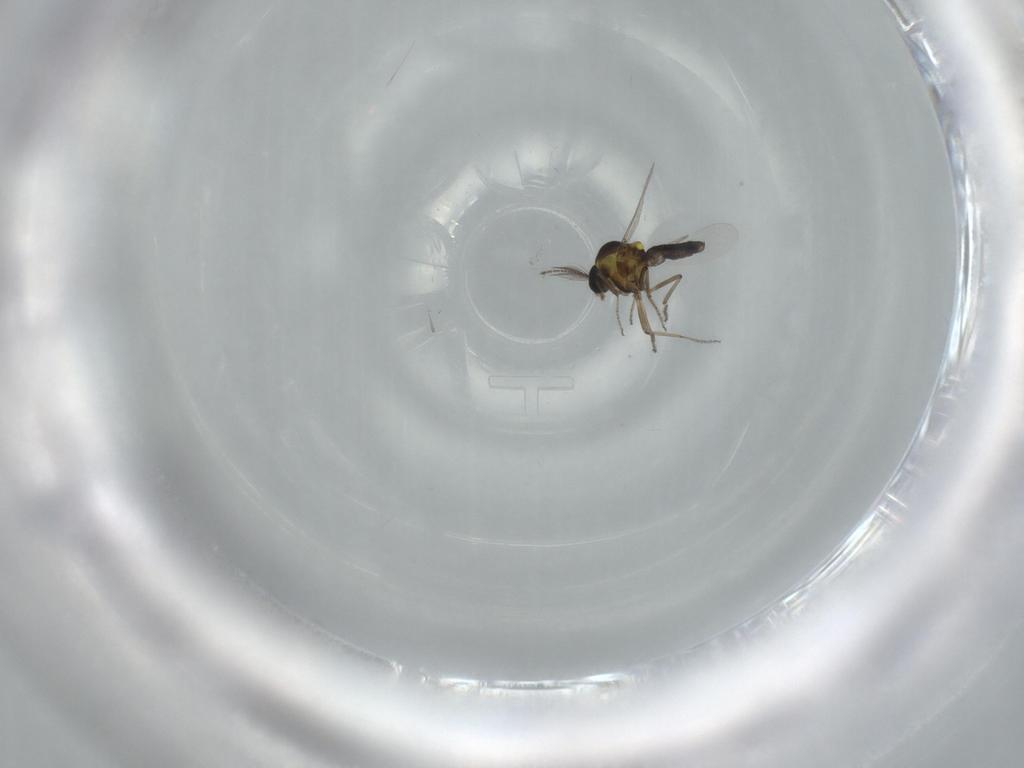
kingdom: Animalia
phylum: Arthropoda
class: Insecta
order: Diptera
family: Ceratopogonidae
